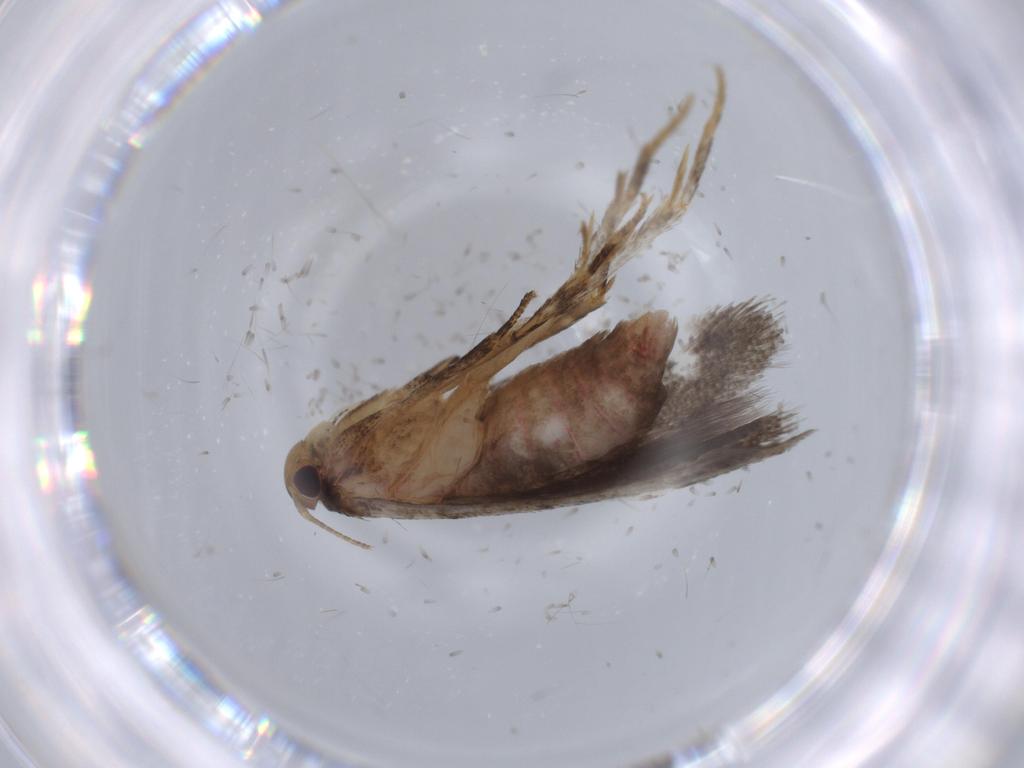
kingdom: Animalia
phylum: Arthropoda
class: Insecta
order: Lepidoptera
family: Oecophoridae
